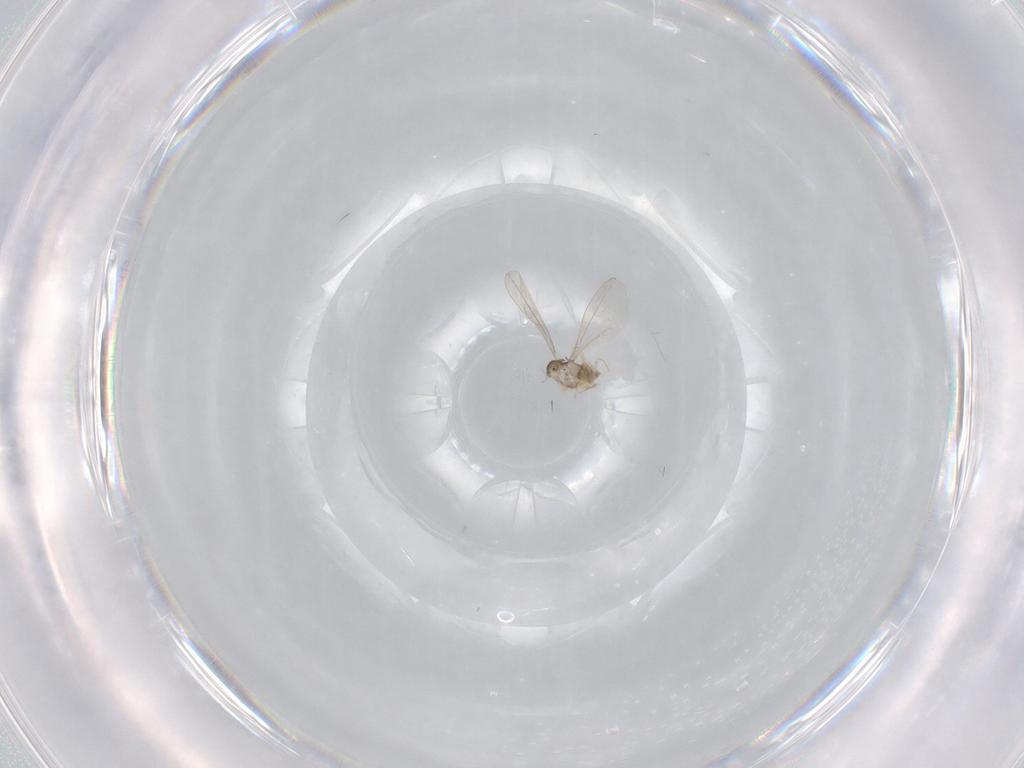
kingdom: Animalia
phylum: Arthropoda
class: Insecta
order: Diptera
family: Cecidomyiidae
